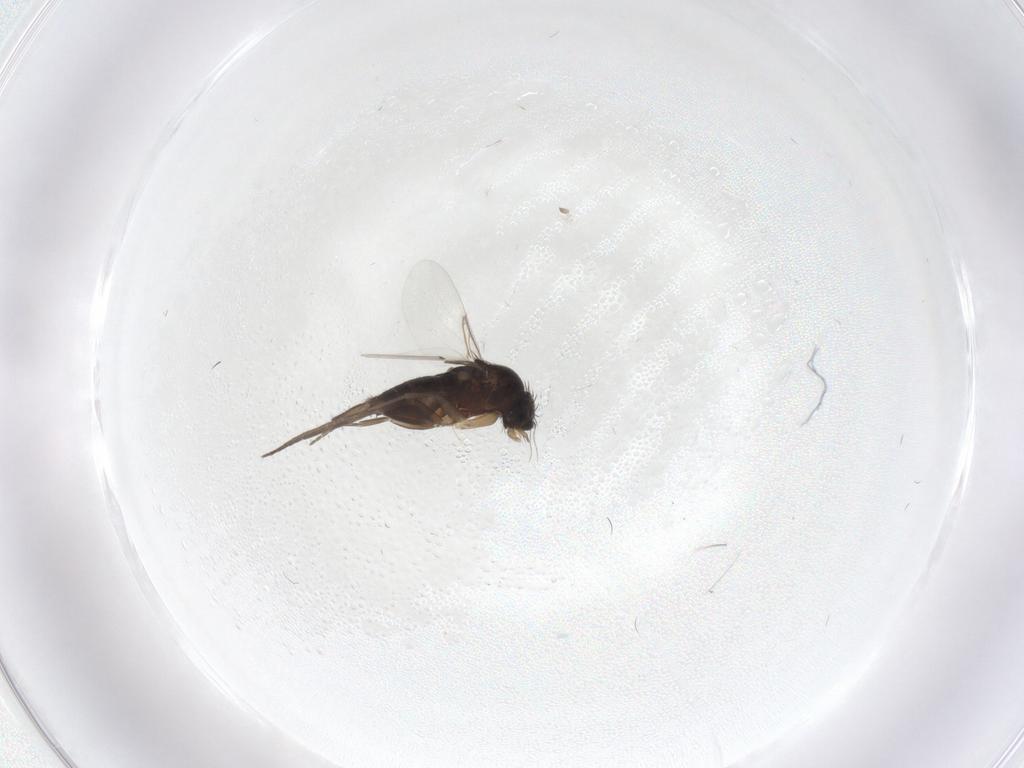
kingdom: Animalia
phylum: Arthropoda
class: Insecta
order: Diptera
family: Phoridae
